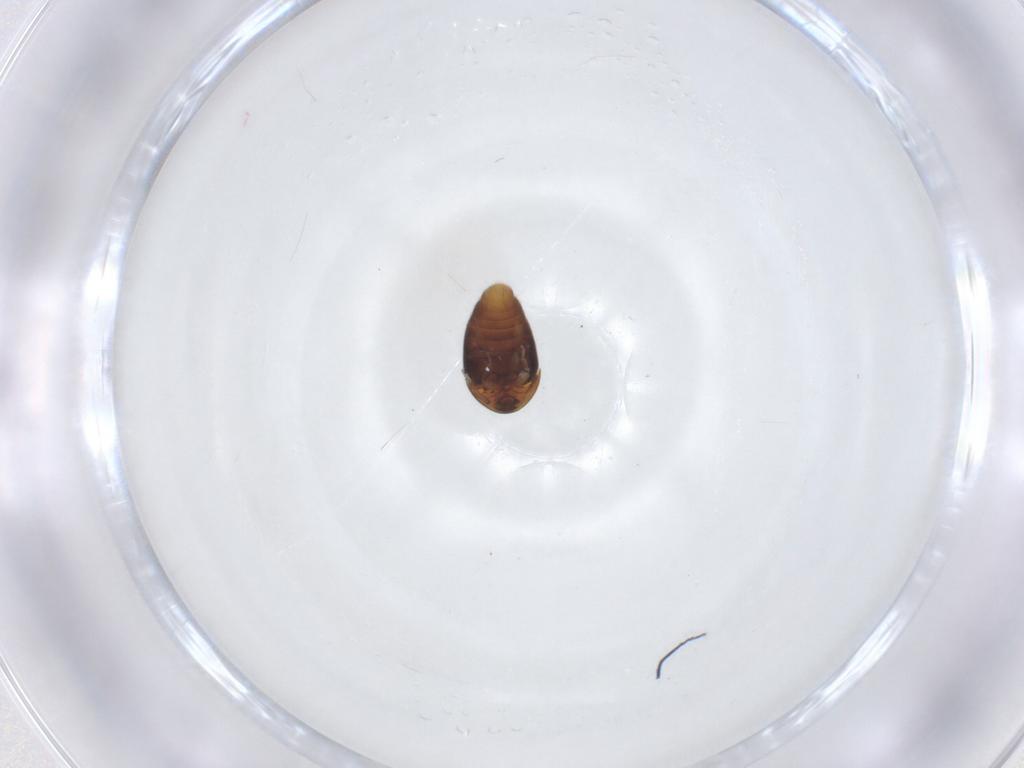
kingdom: Animalia
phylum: Arthropoda
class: Insecta
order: Coleoptera
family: Corylophidae
